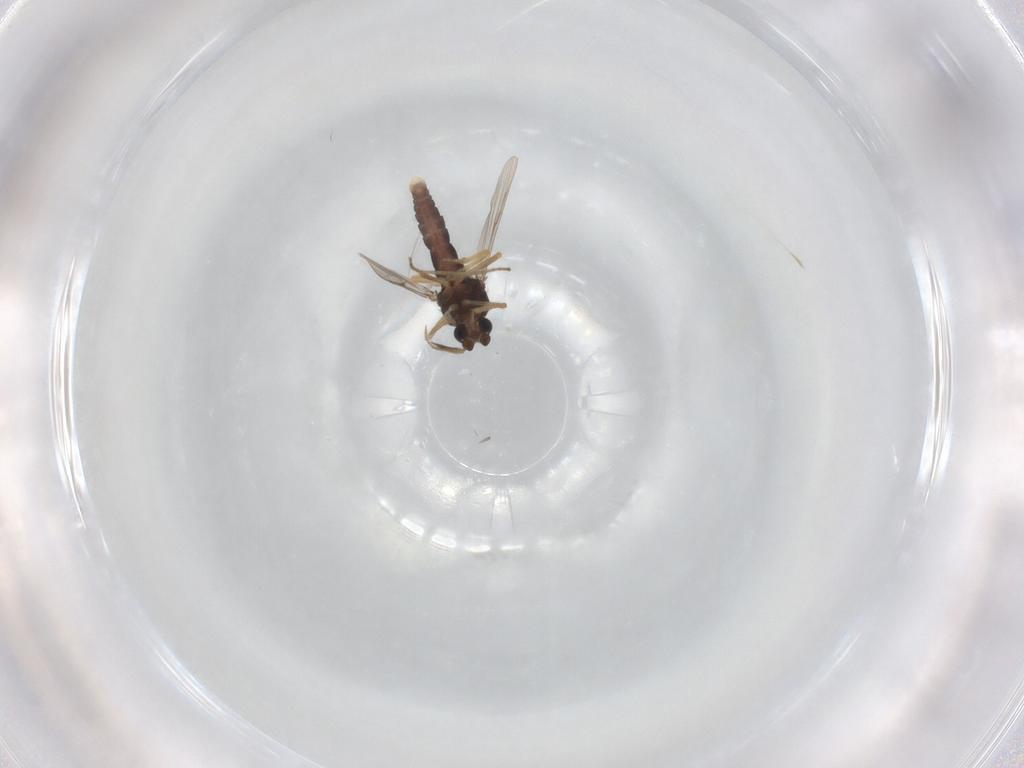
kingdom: Animalia
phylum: Arthropoda
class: Insecta
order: Diptera
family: Ceratopogonidae
